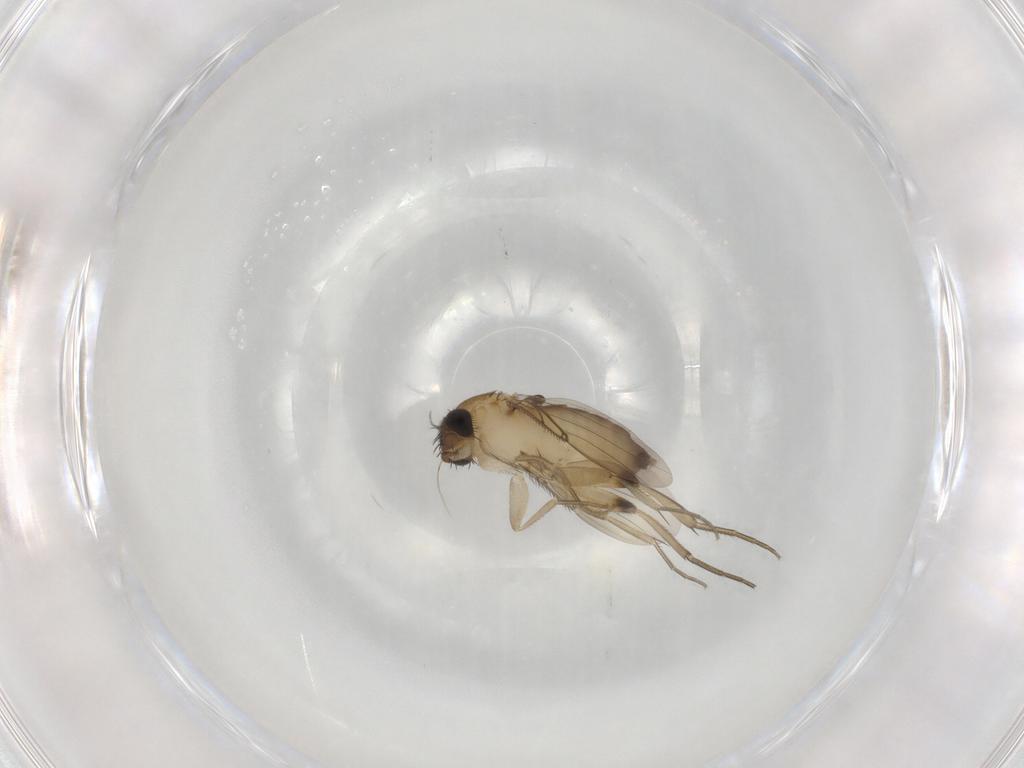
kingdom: Animalia
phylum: Arthropoda
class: Insecta
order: Diptera
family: Phoridae
